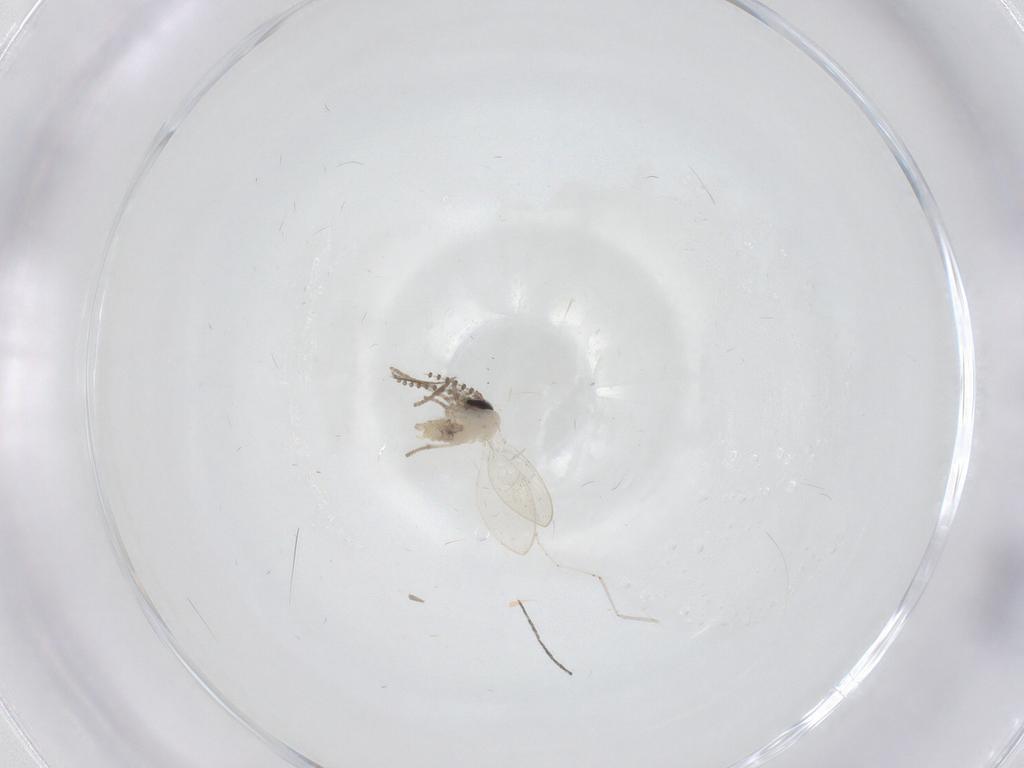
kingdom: Animalia
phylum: Arthropoda
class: Insecta
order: Diptera
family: Psychodidae
